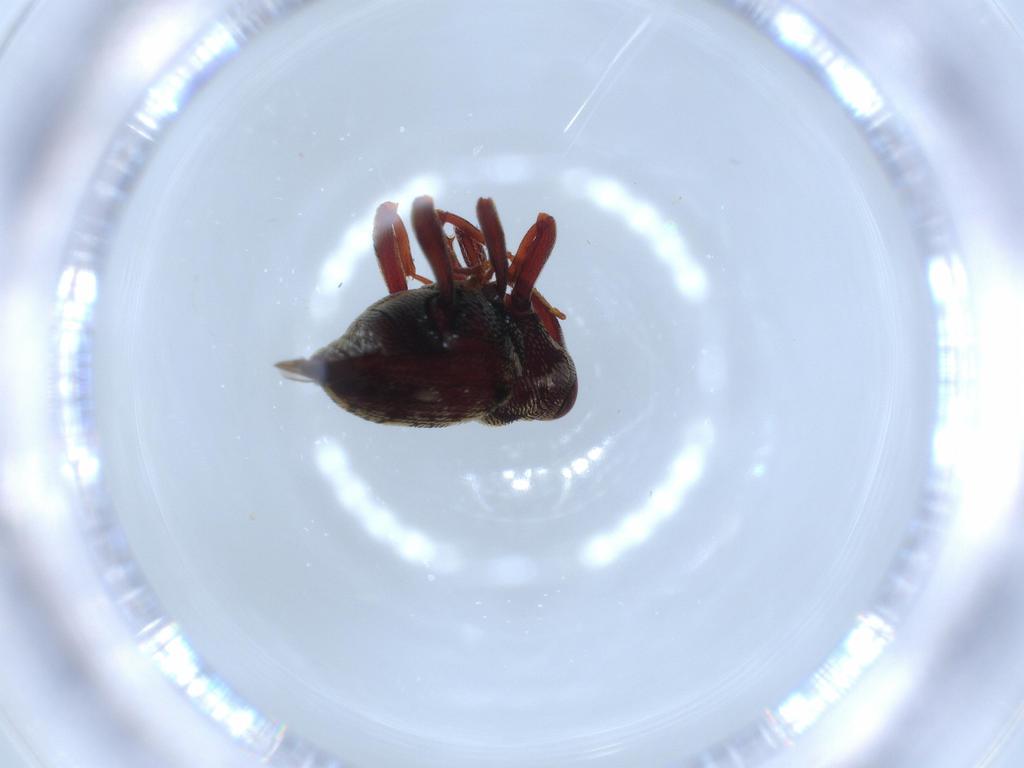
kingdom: Animalia
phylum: Arthropoda
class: Insecta
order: Coleoptera
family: Curculionidae
